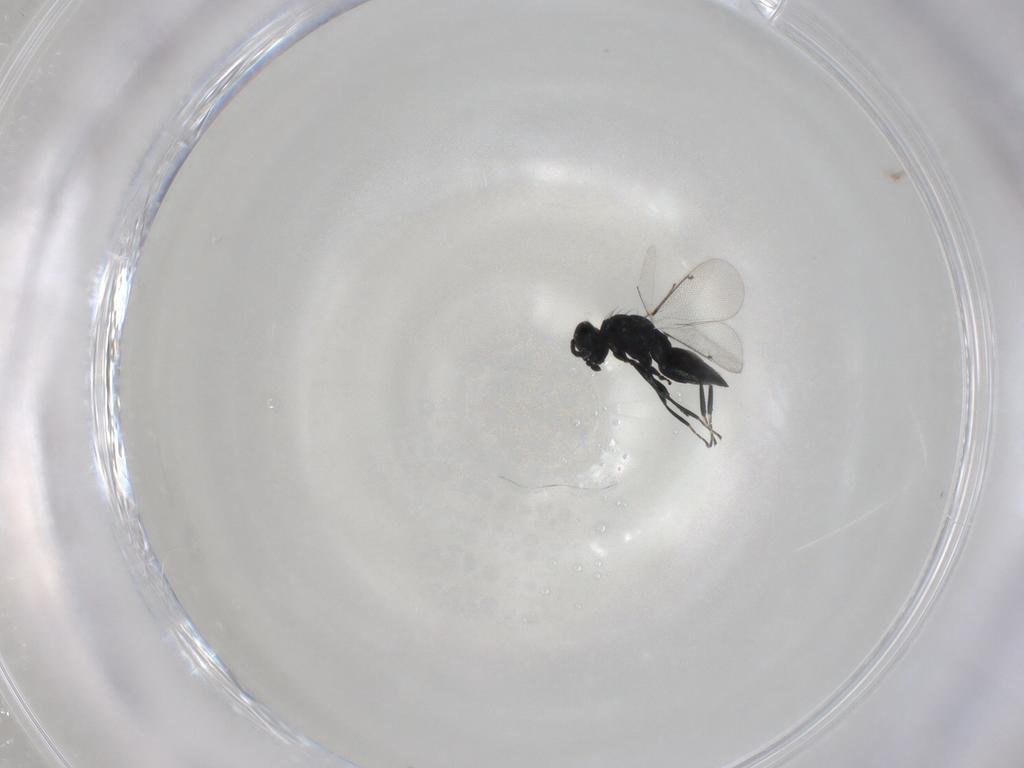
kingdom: Animalia
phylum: Arthropoda
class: Insecta
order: Hymenoptera
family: Eulophidae
